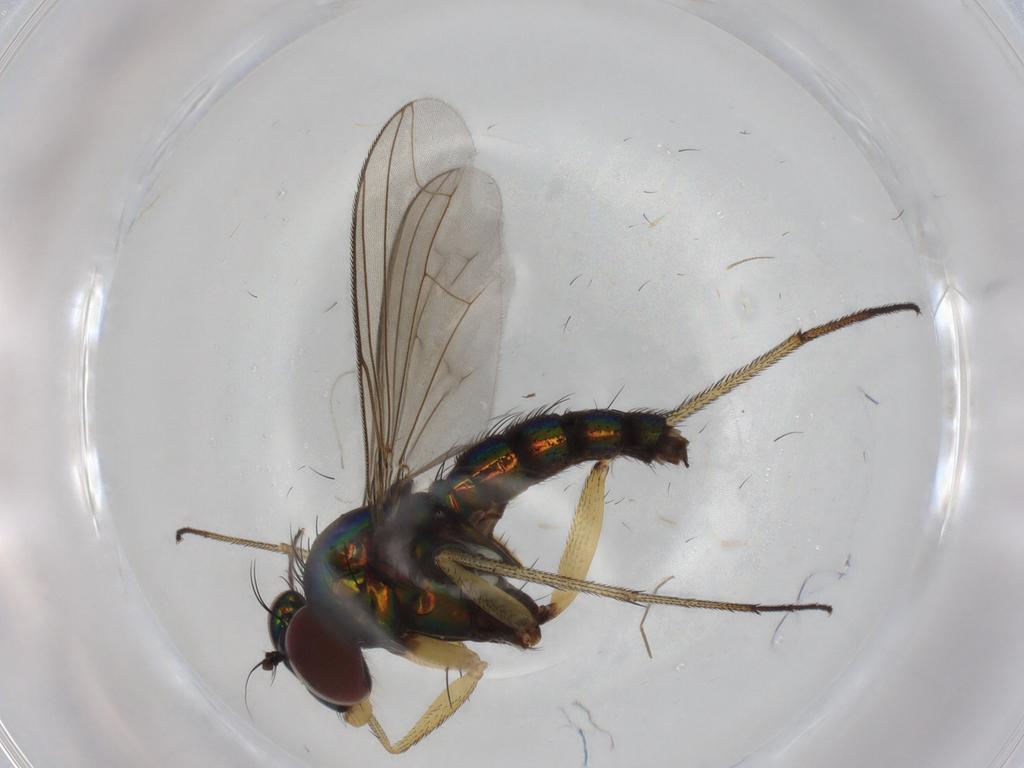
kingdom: Animalia
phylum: Arthropoda
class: Insecta
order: Diptera
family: Dolichopodidae
